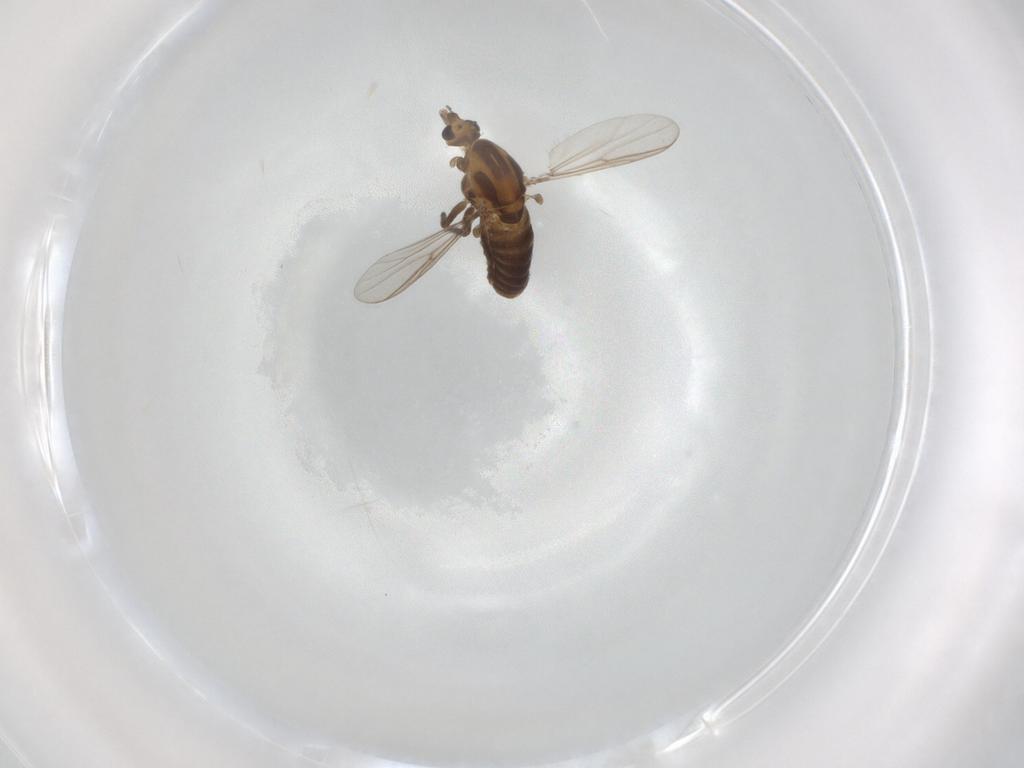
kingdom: Animalia
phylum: Arthropoda
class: Insecta
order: Diptera
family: Chironomidae
